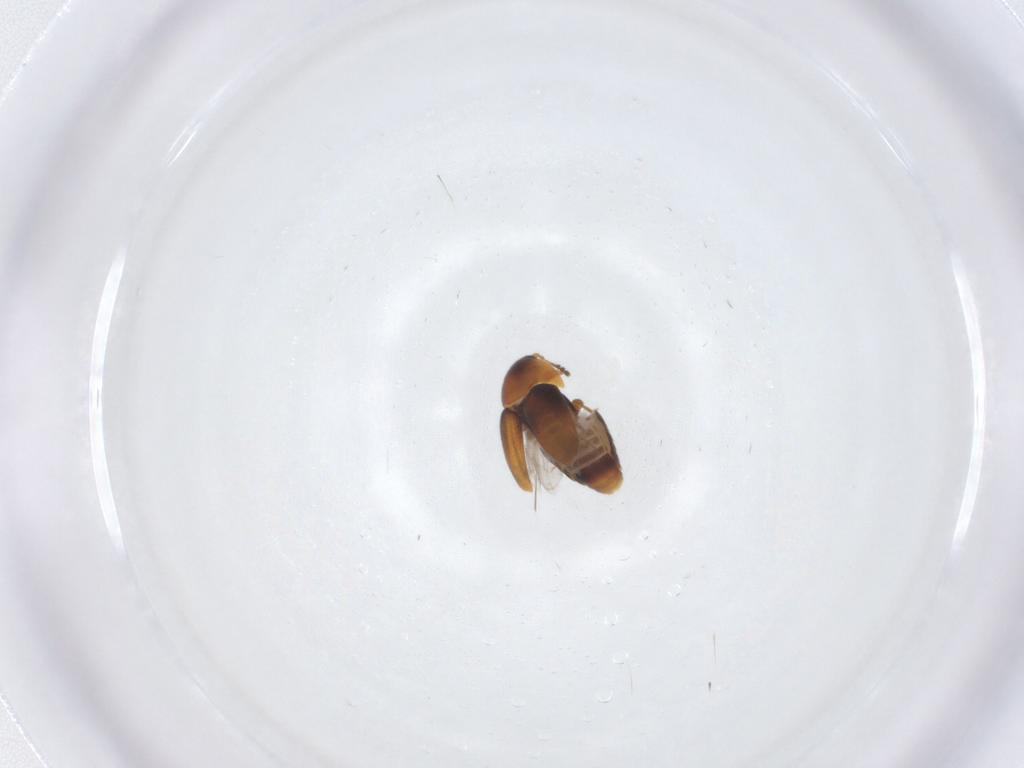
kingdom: Animalia
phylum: Arthropoda
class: Insecta
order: Coleoptera
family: Corylophidae
